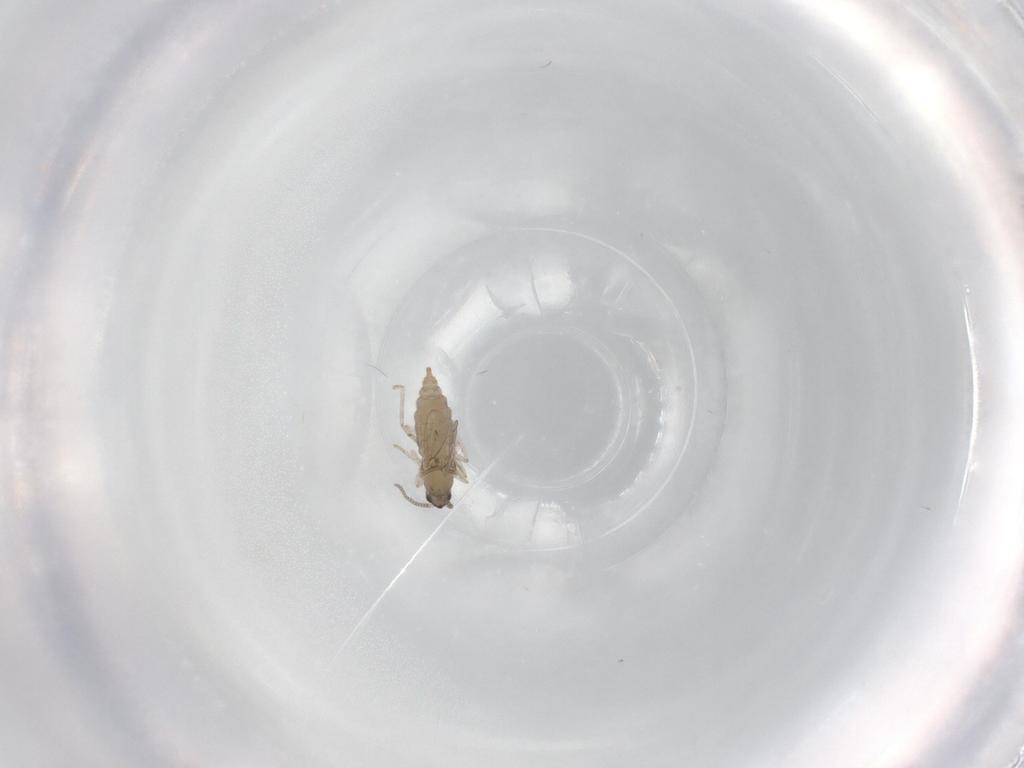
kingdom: Animalia
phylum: Arthropoda
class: Insecta
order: Diptera
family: Cecidomyiidae
